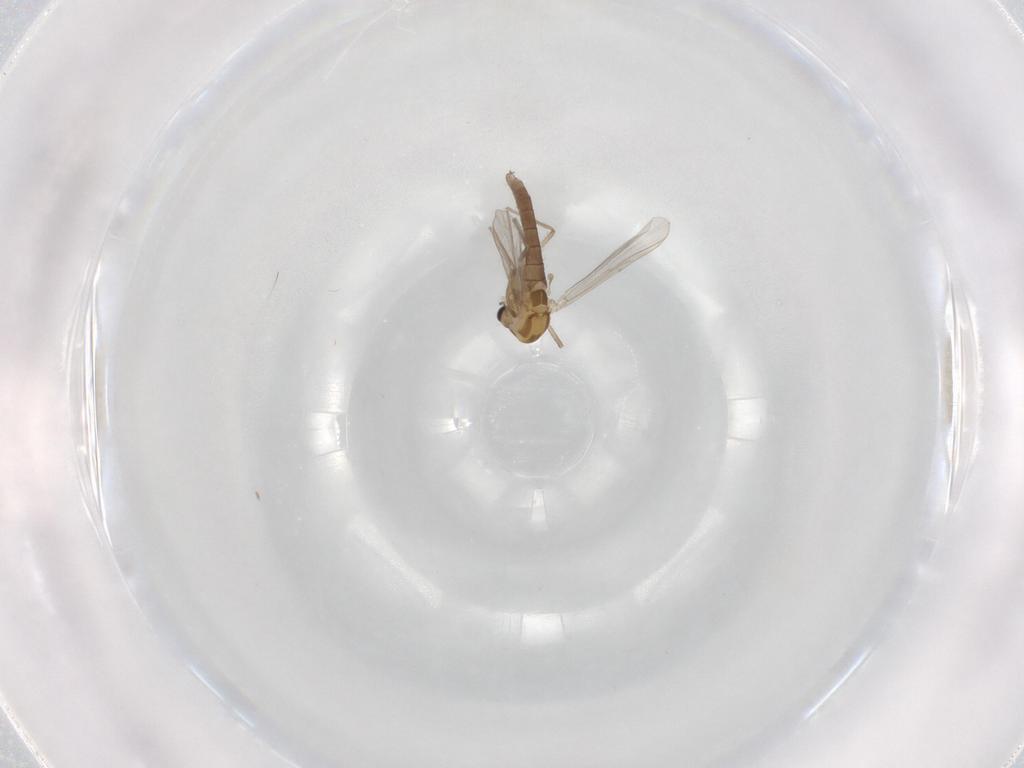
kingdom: Animalia
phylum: Arthropoda
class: Insecta
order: Diptera
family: Chironomidae
